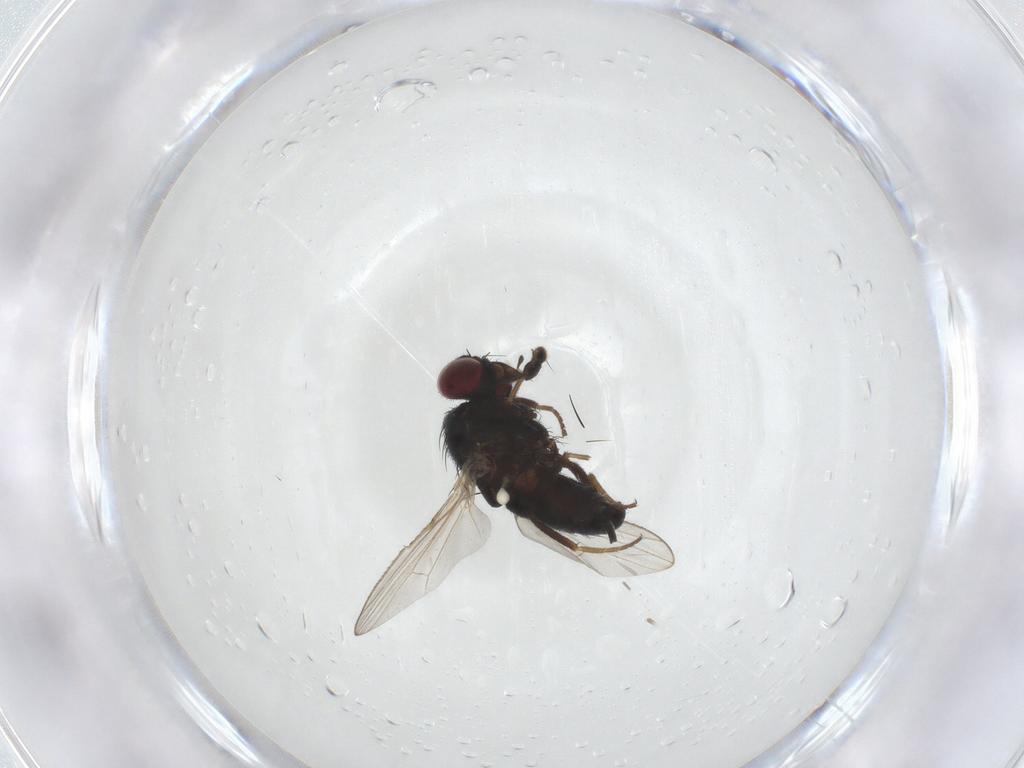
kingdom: Animalia
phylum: Arthropoda
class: Insecta
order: Diptera
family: Carnidae
